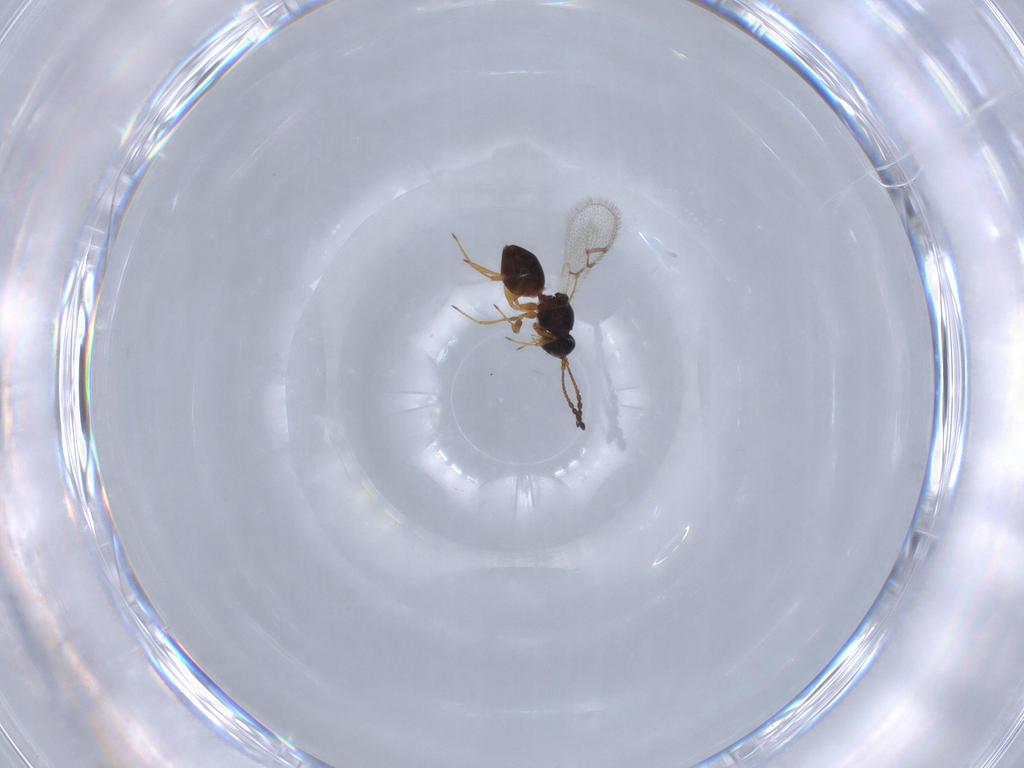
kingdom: Animalia
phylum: Arthropoda
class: Insecta
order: Hymenoptera
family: Figitidae
